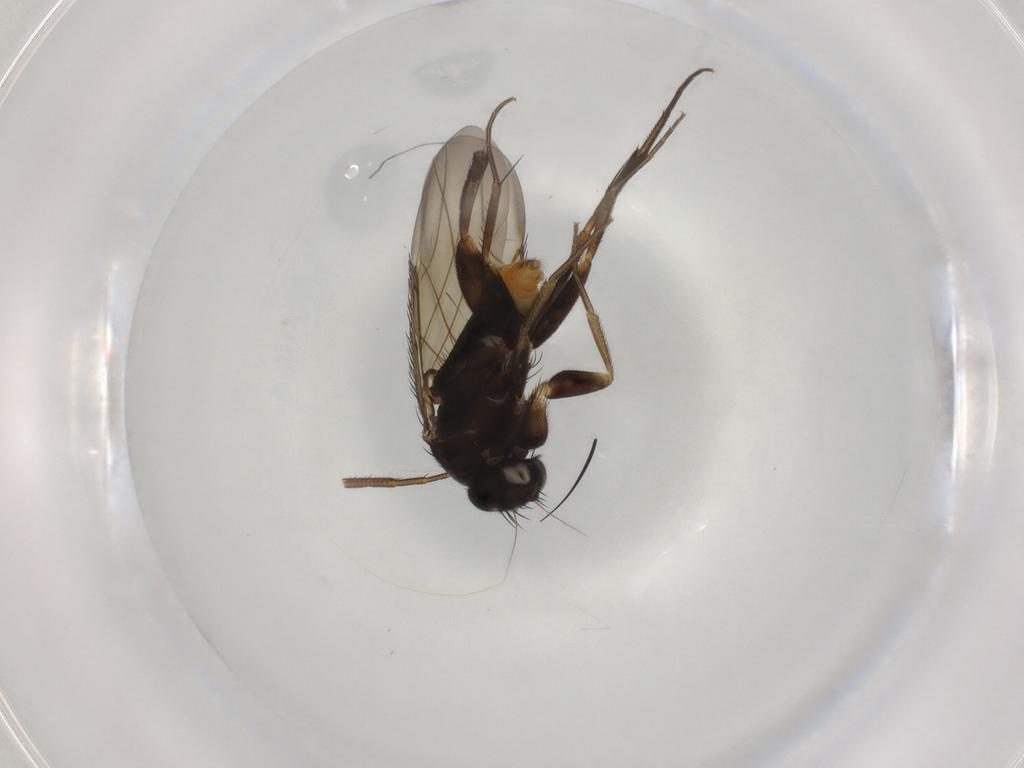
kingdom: Animalia
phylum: Arthropoda
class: Insecta
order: Diptera
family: Phoridae
